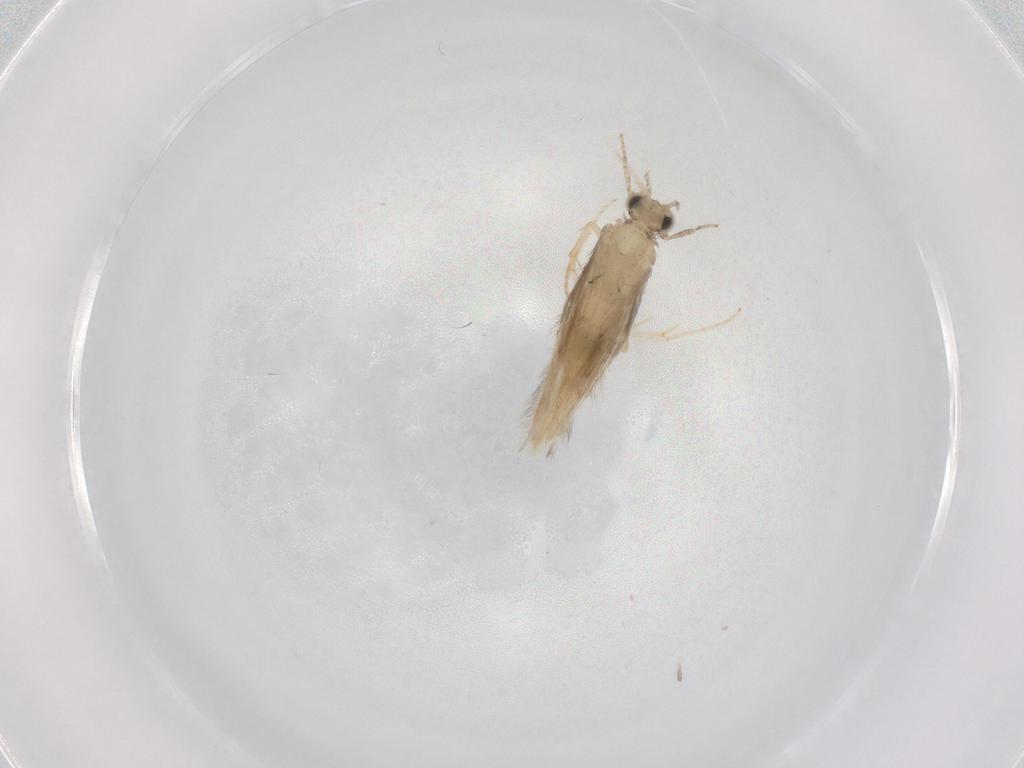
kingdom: Animalia
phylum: Arthropoda
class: Insecta
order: Trichoptera
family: Hydroptilidae
